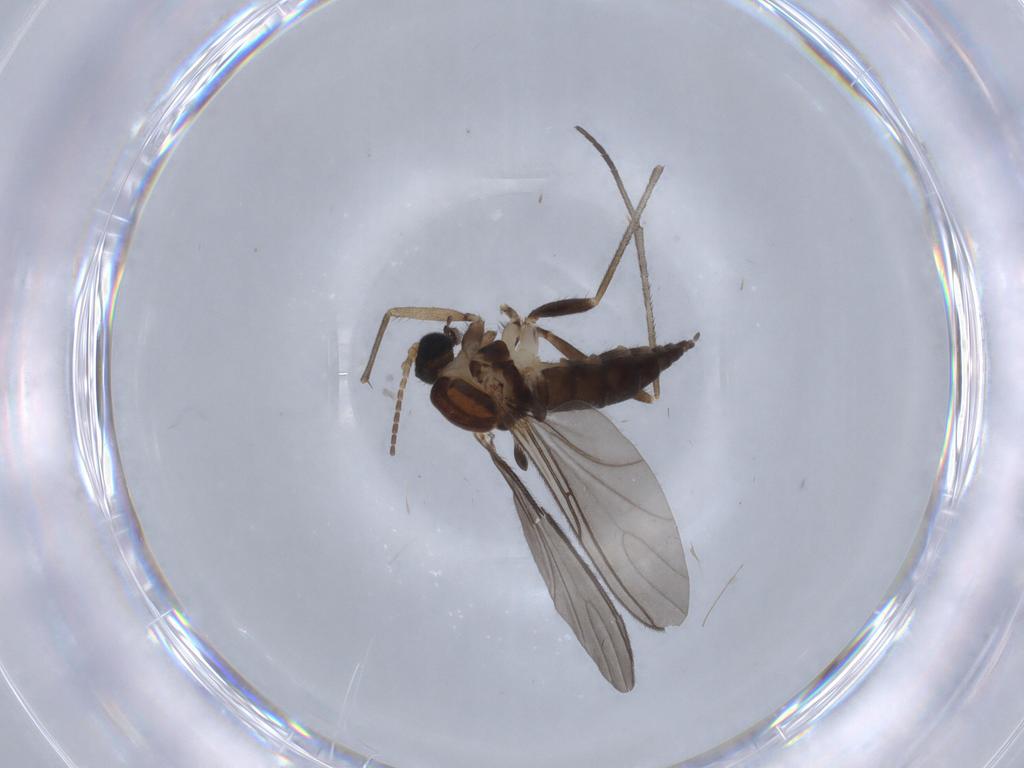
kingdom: Animalia
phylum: Arthropoda
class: Insecta
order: Diptera
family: Sciaridae
